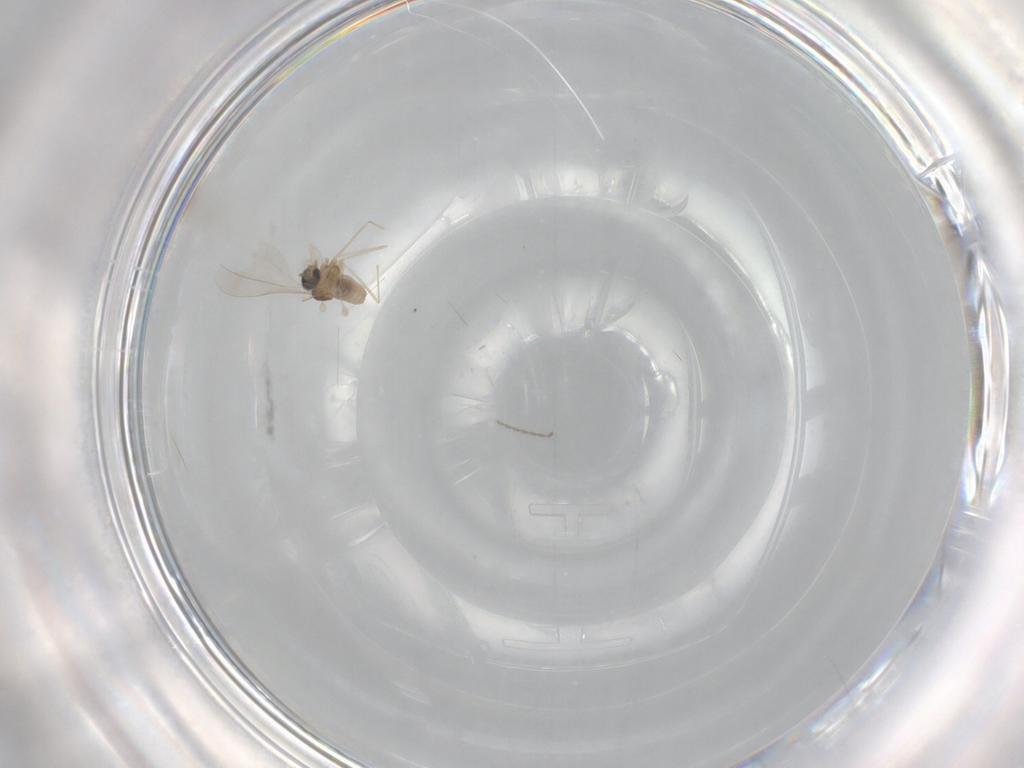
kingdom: Animalia
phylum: Arthropoda
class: Insecta
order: Diptera
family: Cecidomyiidae
